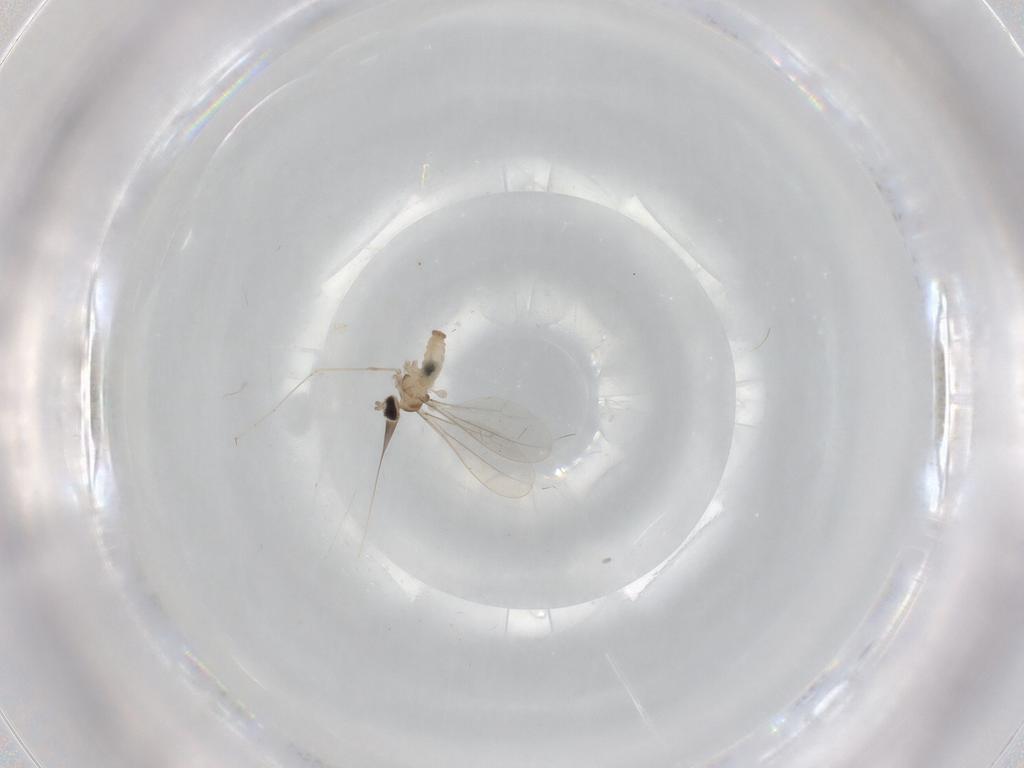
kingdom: Animalia
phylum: Arthropoda
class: Insecta
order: Diptera
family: Cecidomyiidae
